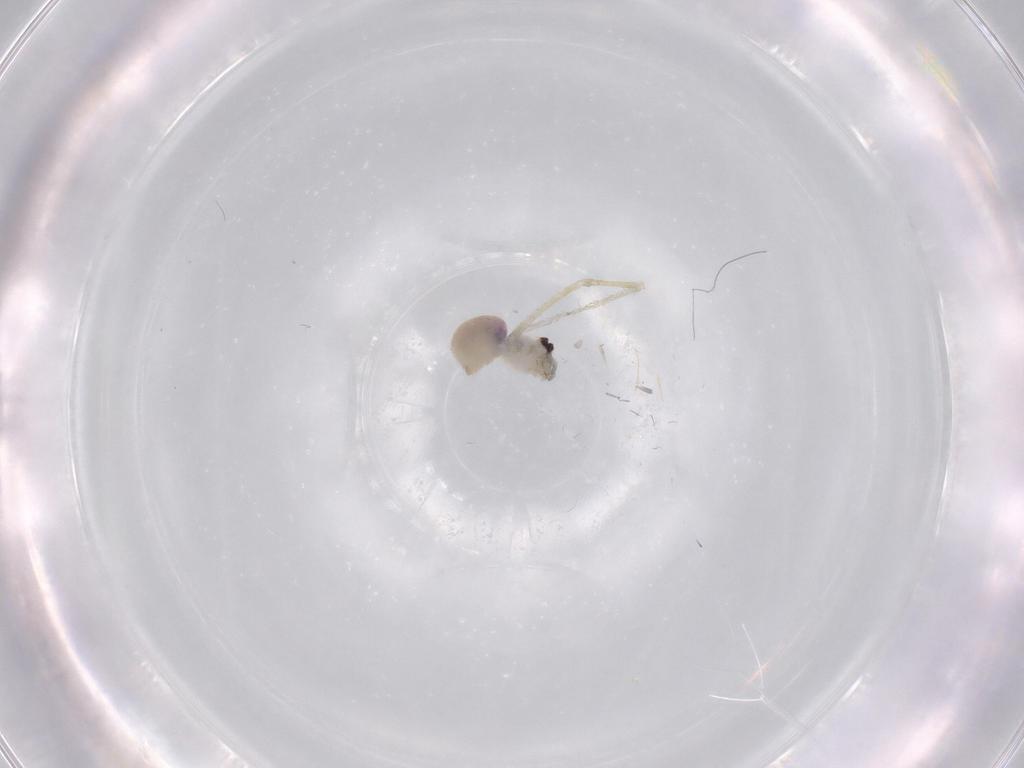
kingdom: Animalia
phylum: Arthropoda
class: Arachnida
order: Araneae
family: Pholcidae
